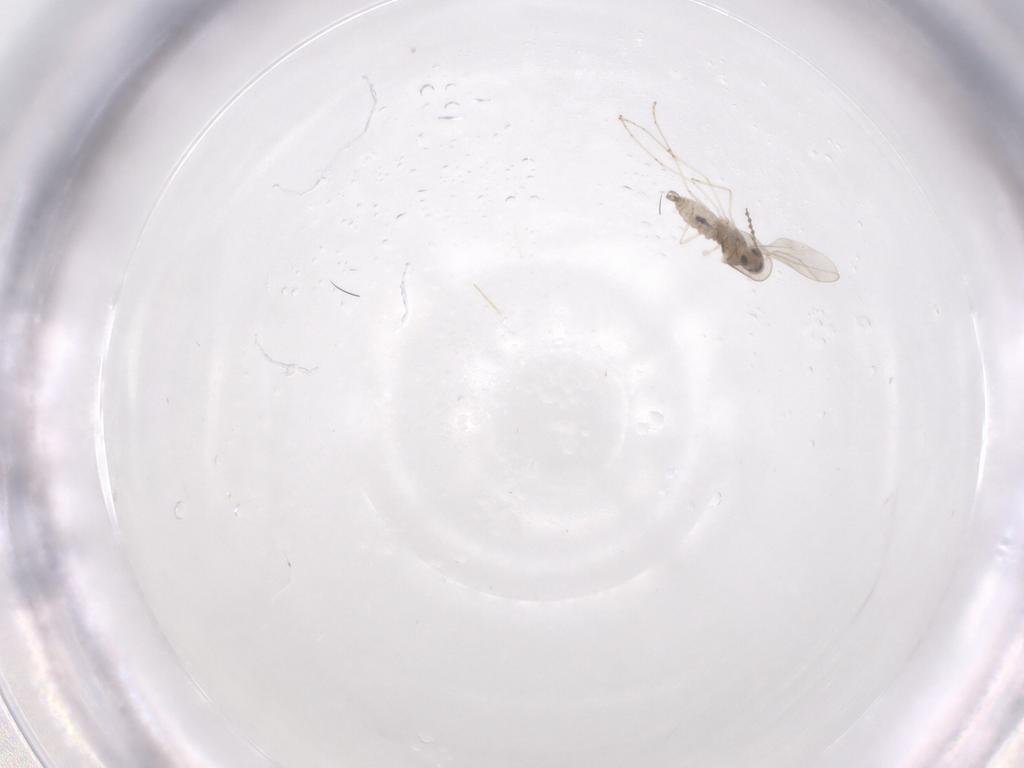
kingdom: Animalia
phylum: Arthropoda
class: Insecta
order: Diptera
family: Cecidomyiidae
